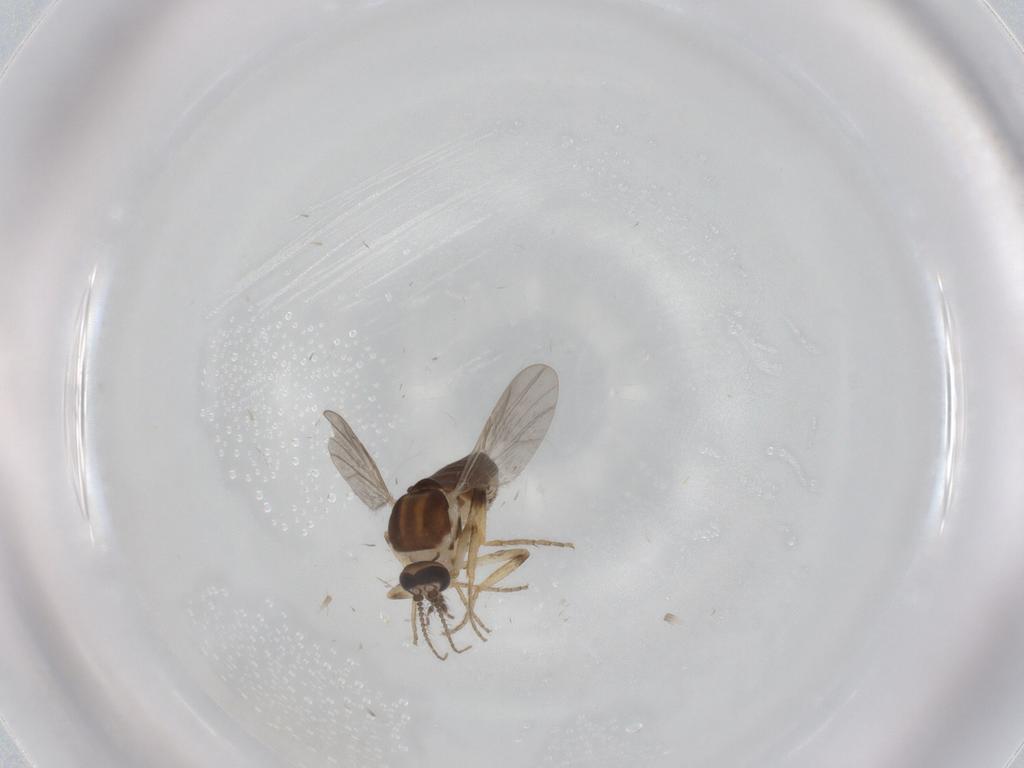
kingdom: Animalia
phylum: Arthropoda
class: Insecta
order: Diptera
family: Ceratopogonidae
